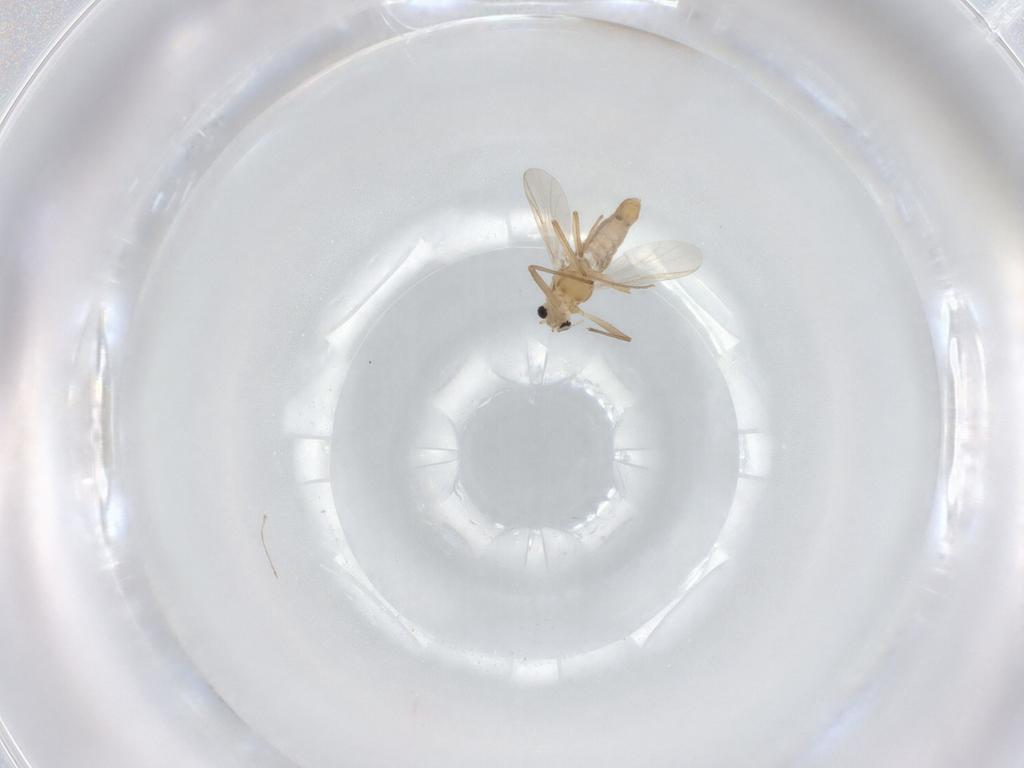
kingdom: Animalia
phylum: Arthropoda
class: Insecta
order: Diptera
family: Chironomidae
